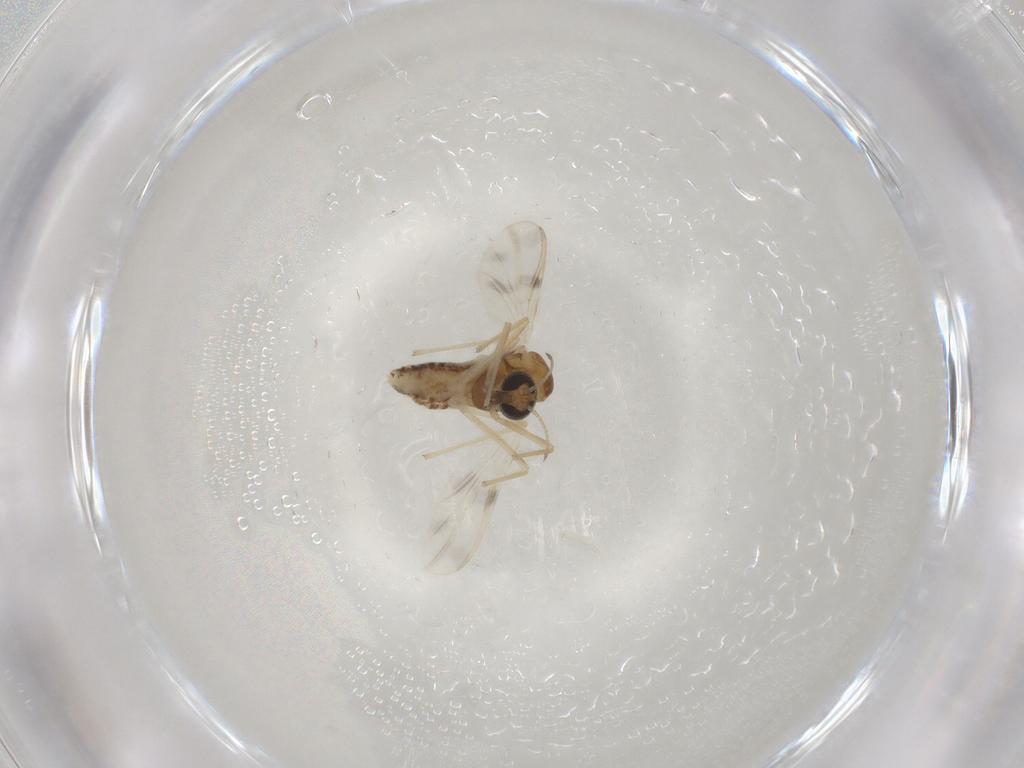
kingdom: Animalia
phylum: Arthropoda
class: Insecta
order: Diptera
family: Chironomidae
